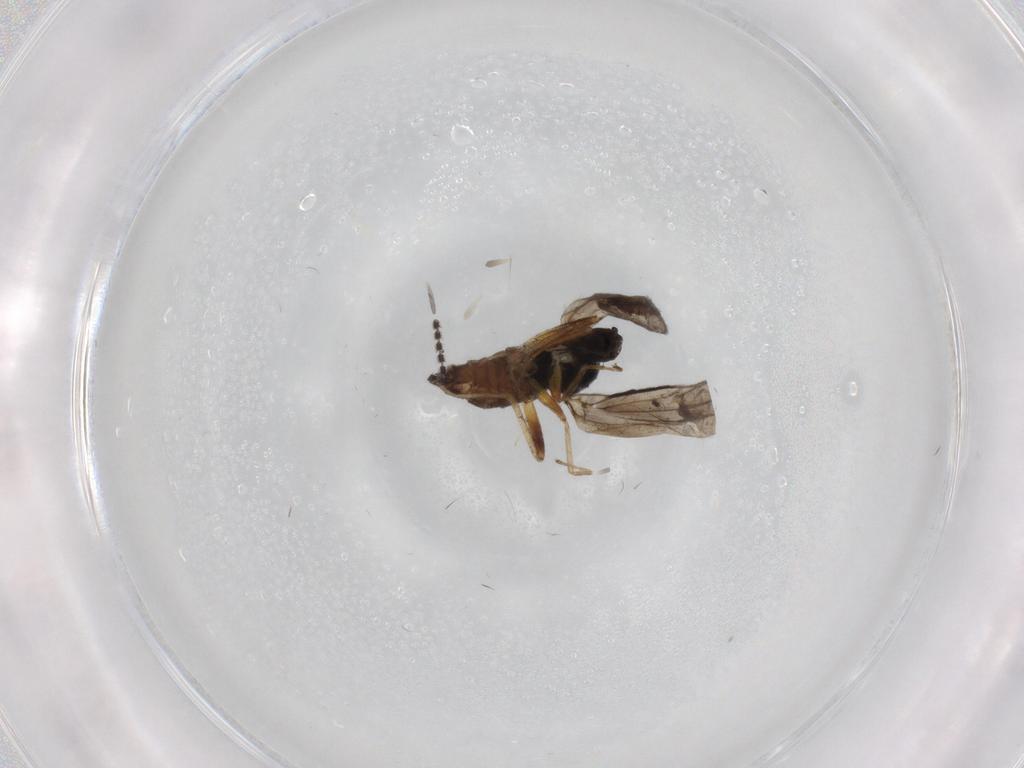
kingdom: Animalia
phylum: Arthropoda
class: Insecta
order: Diptera
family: Hybotidae
